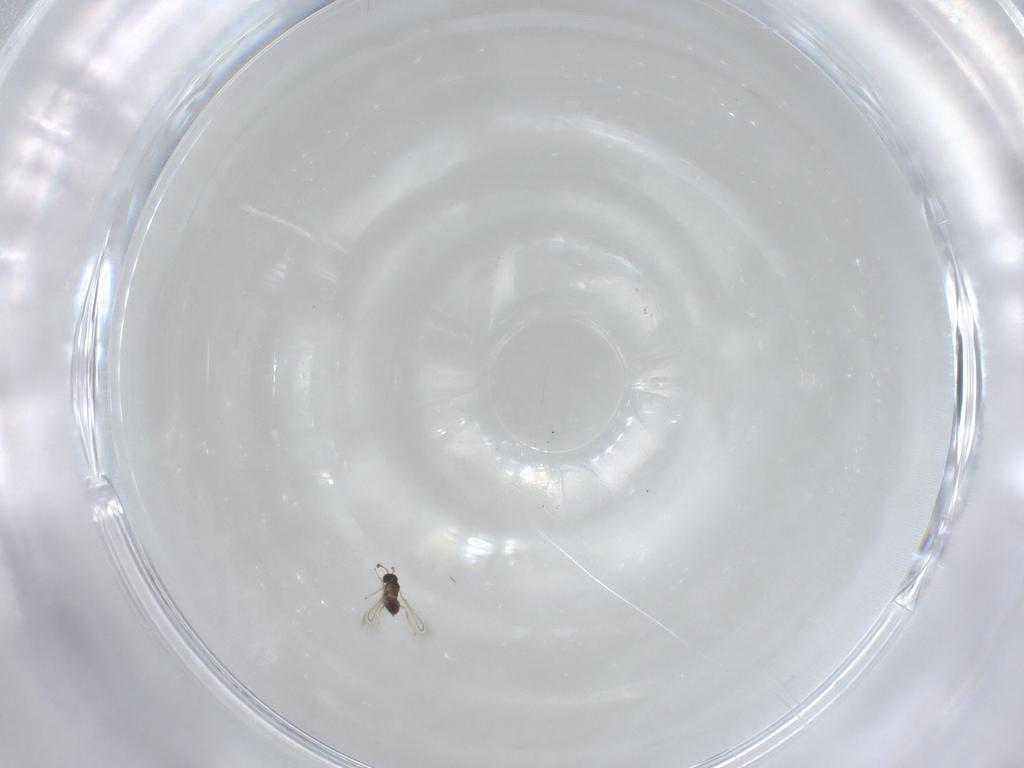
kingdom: Animalia
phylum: Arthropoda
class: Insecta
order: Hymenoptera
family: Mymaridae
